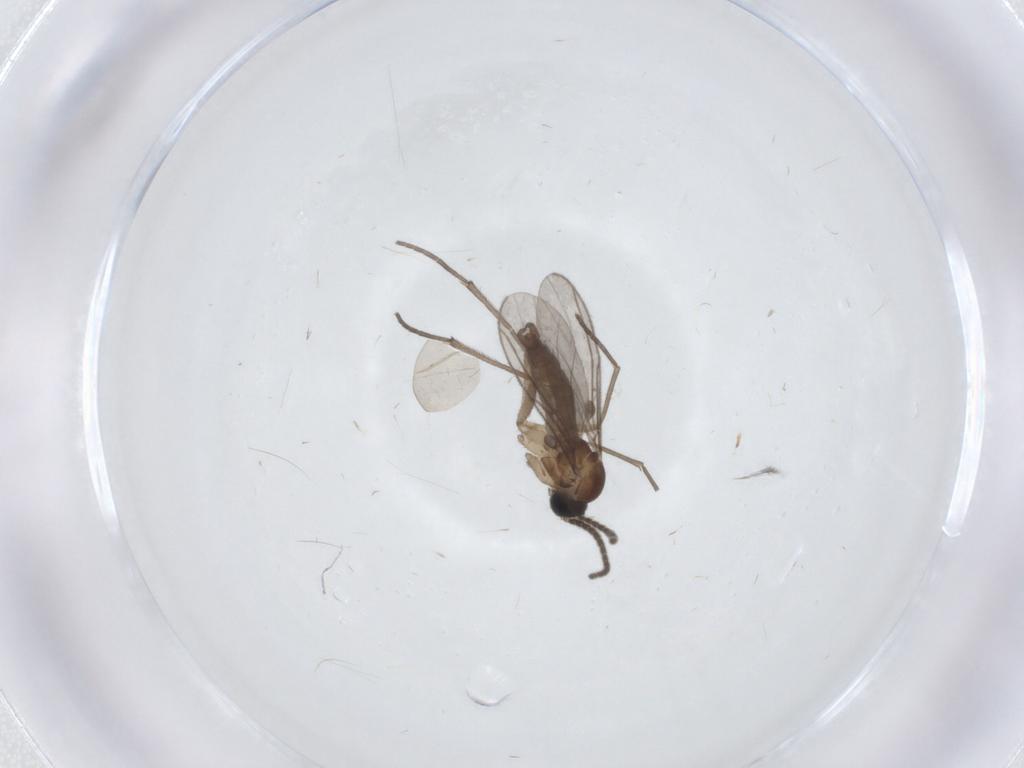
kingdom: Animalia
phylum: Arthropoda
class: Insecta
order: Diptera
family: Sciaridae
